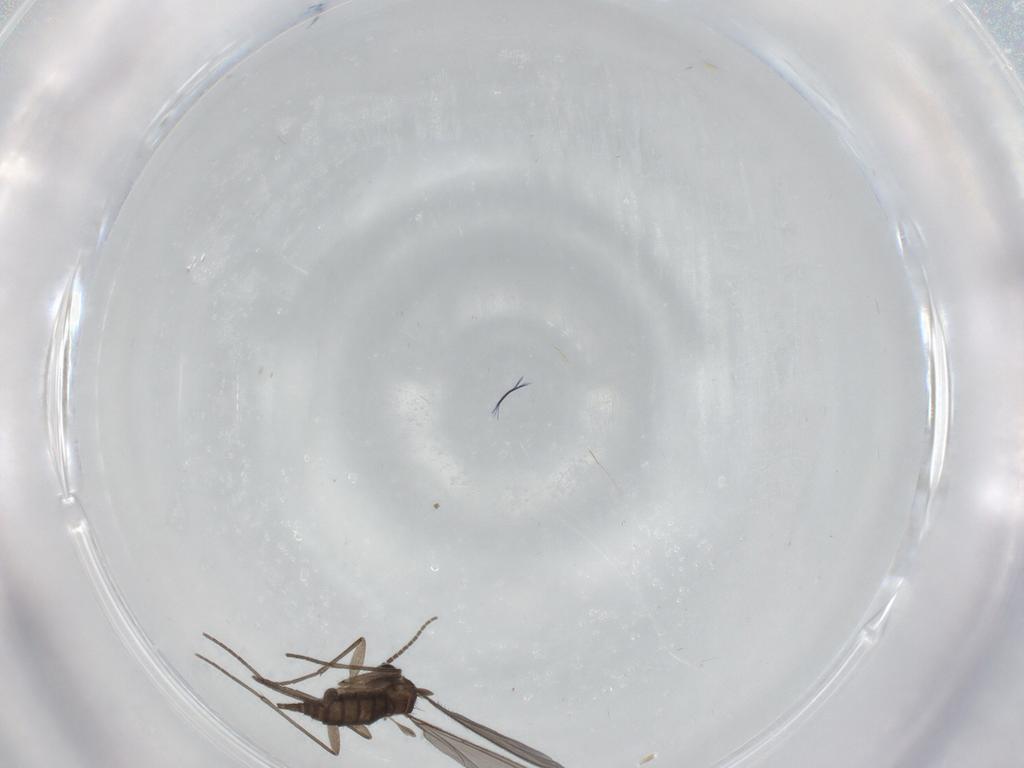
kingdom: Animalia
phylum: Arthropoda
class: Insecta
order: Diptera
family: Sciaridae
